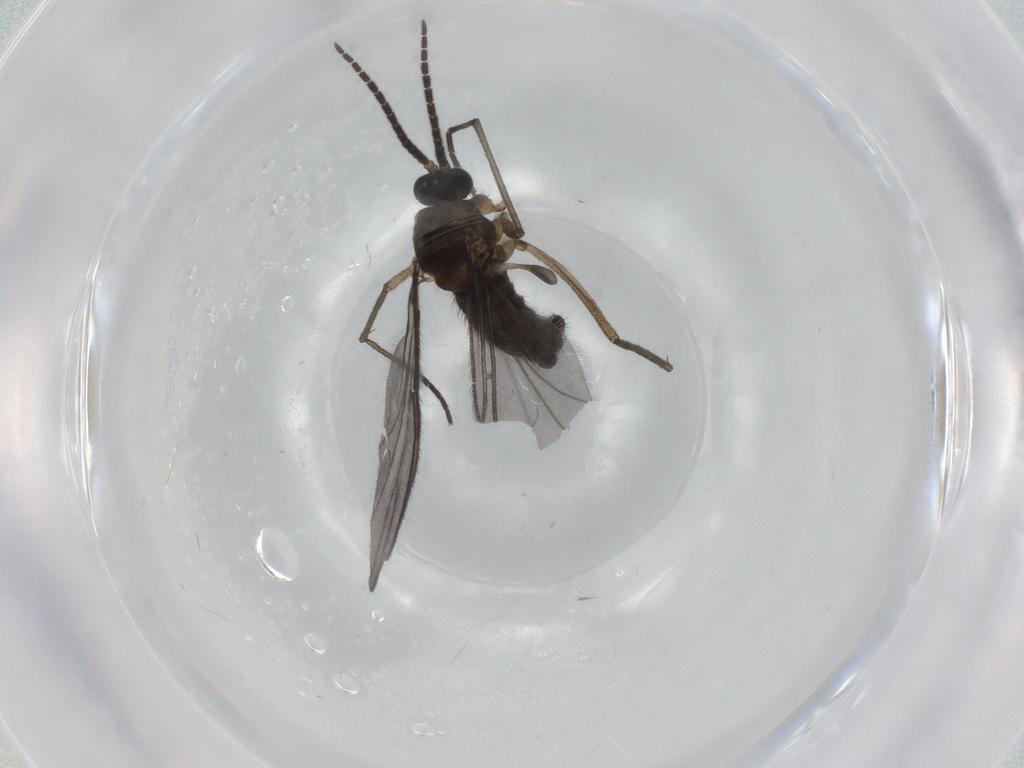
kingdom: Animalia
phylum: Arthropoda
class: Insecta
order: Diptera
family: Sciaridae
